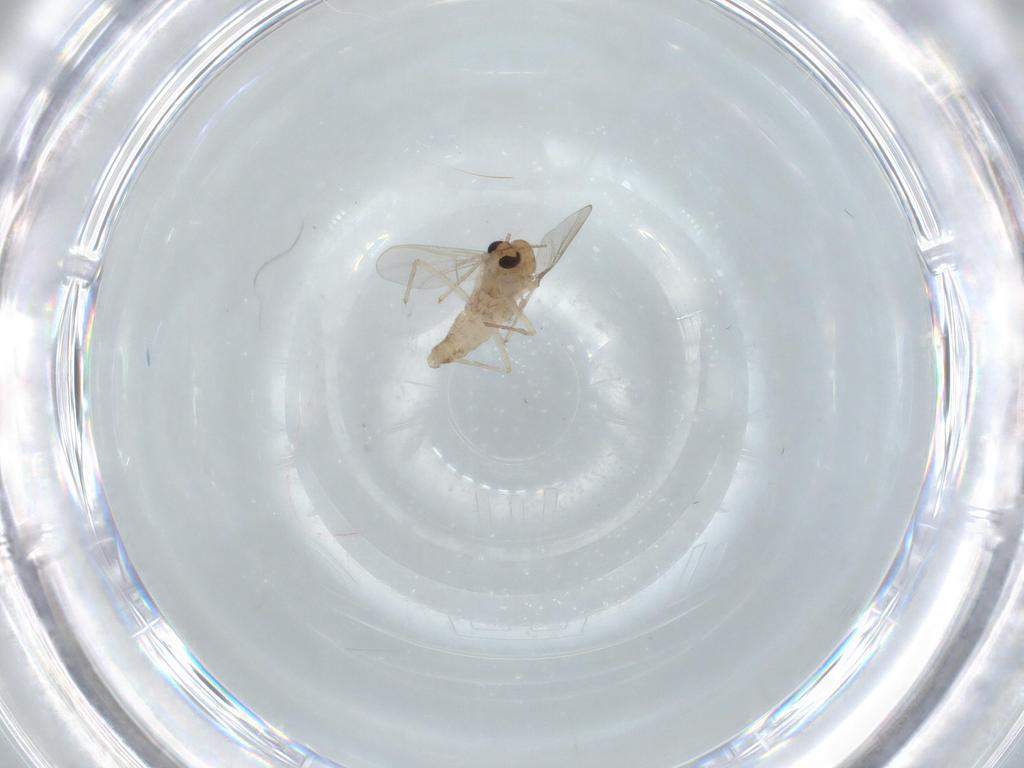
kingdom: Animalia
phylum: Arthropoda
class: Insecta
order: Diptera
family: Chironomidae
